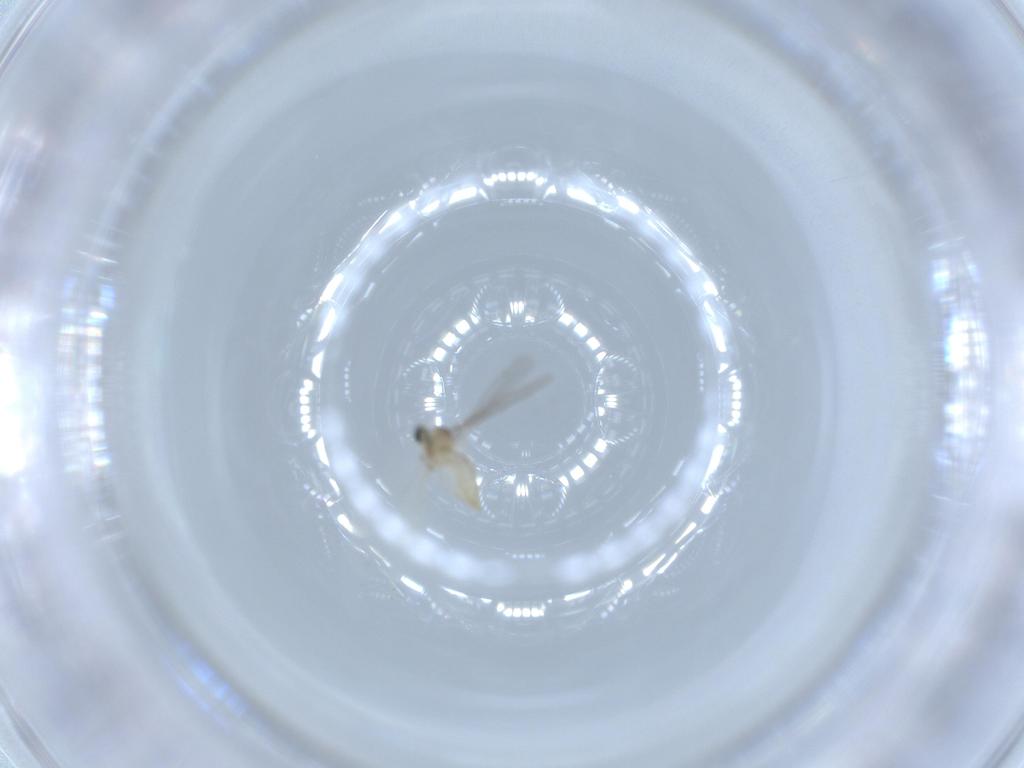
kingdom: Animalia
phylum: Arthropoda
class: Insecta
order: Diptera
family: Cecidomyiidae
